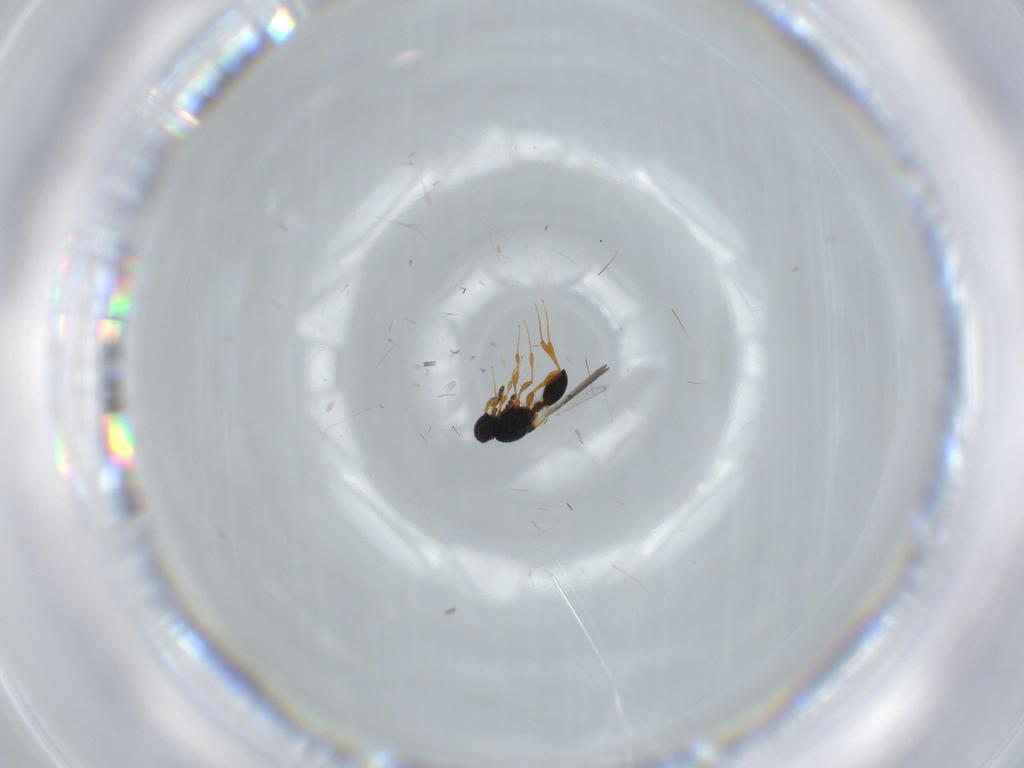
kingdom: Animalia
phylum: Arthropoda
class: Insecta
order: Hymenoptera
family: Platygastridae
